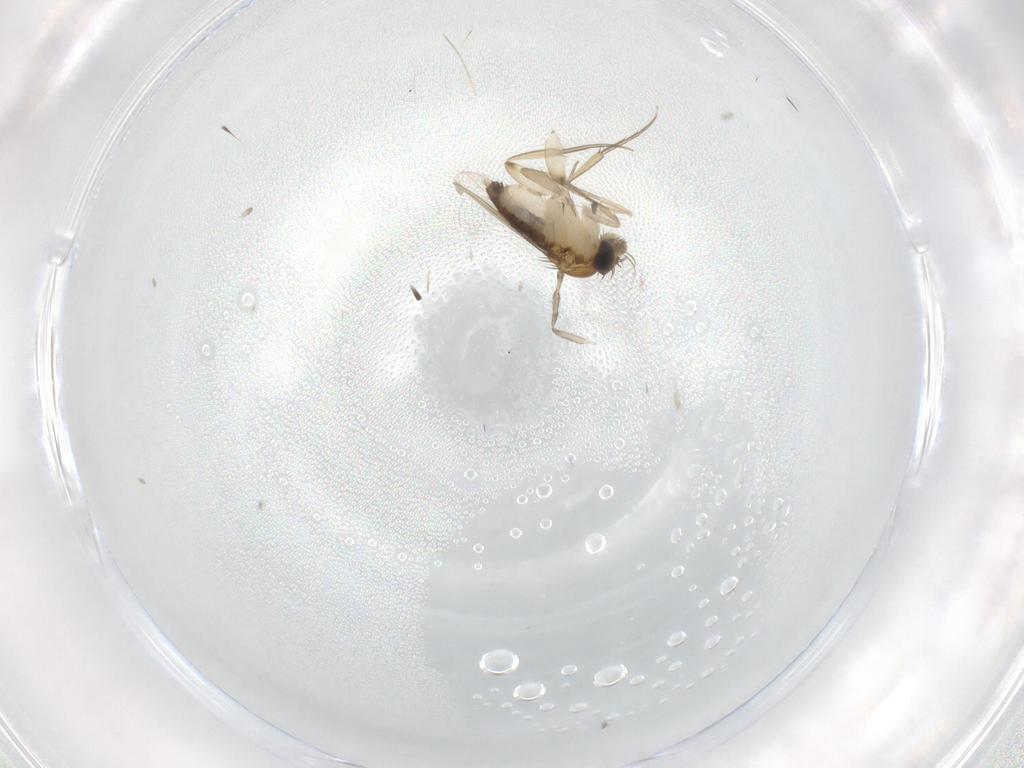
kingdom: Animalia
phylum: Arthropoda
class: Insecta
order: Diptera
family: Phoridae
